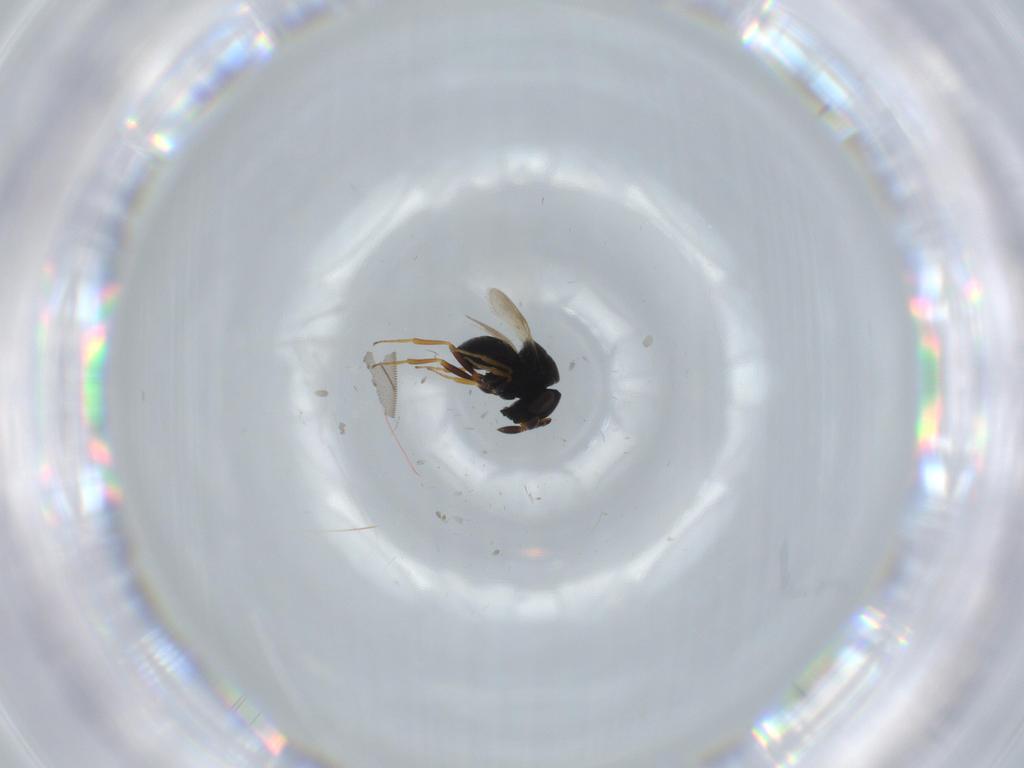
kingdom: Animalia
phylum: Arthropoda
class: Insecta
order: Hymenoptera
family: Scelionidae
